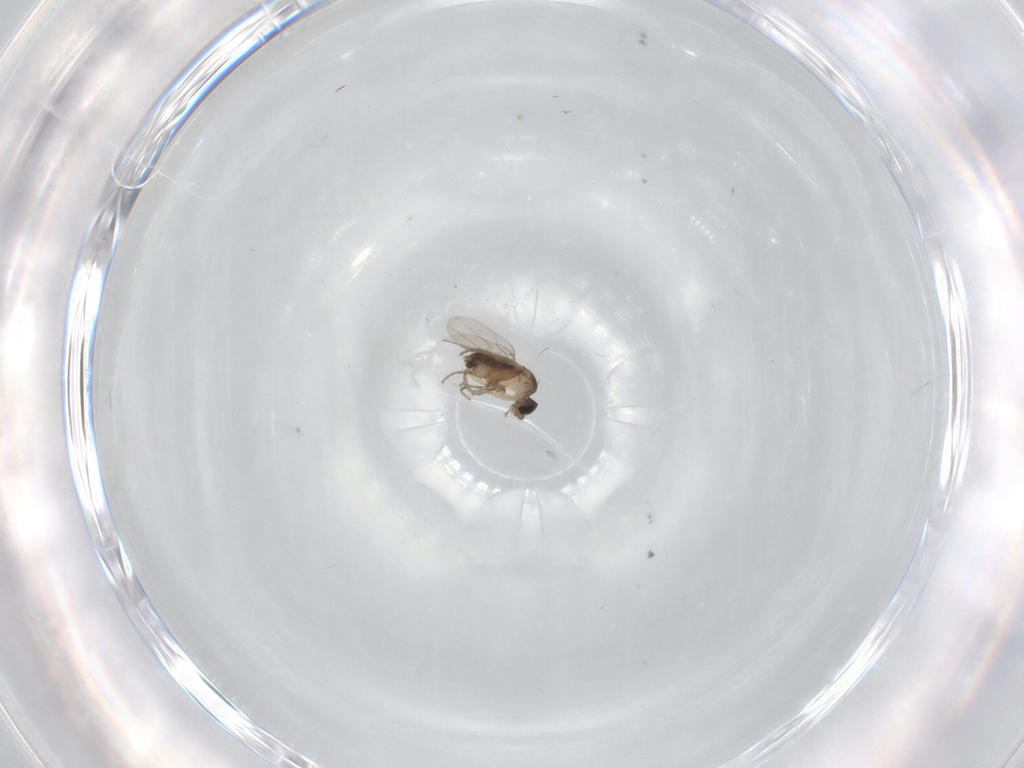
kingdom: Animalia
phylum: Arthropoda
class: Insecta
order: Diptera
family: Phoridae
